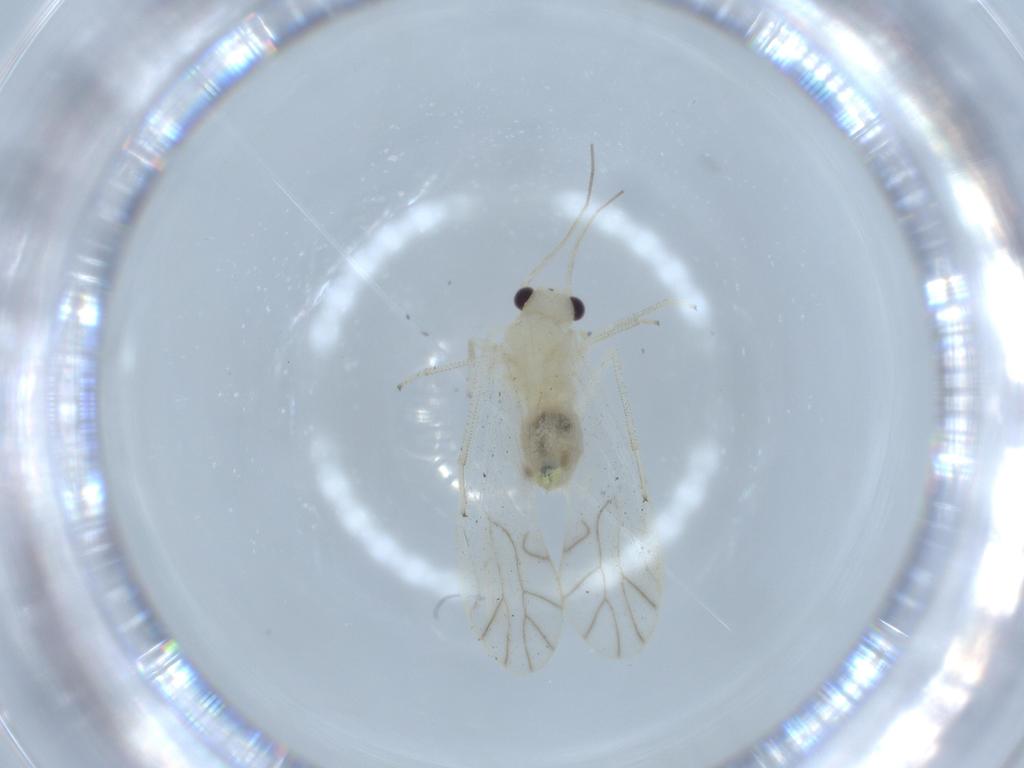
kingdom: Animalia
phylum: Arthropoda
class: Insecta
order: Psocodea
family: Caeciliusidae
